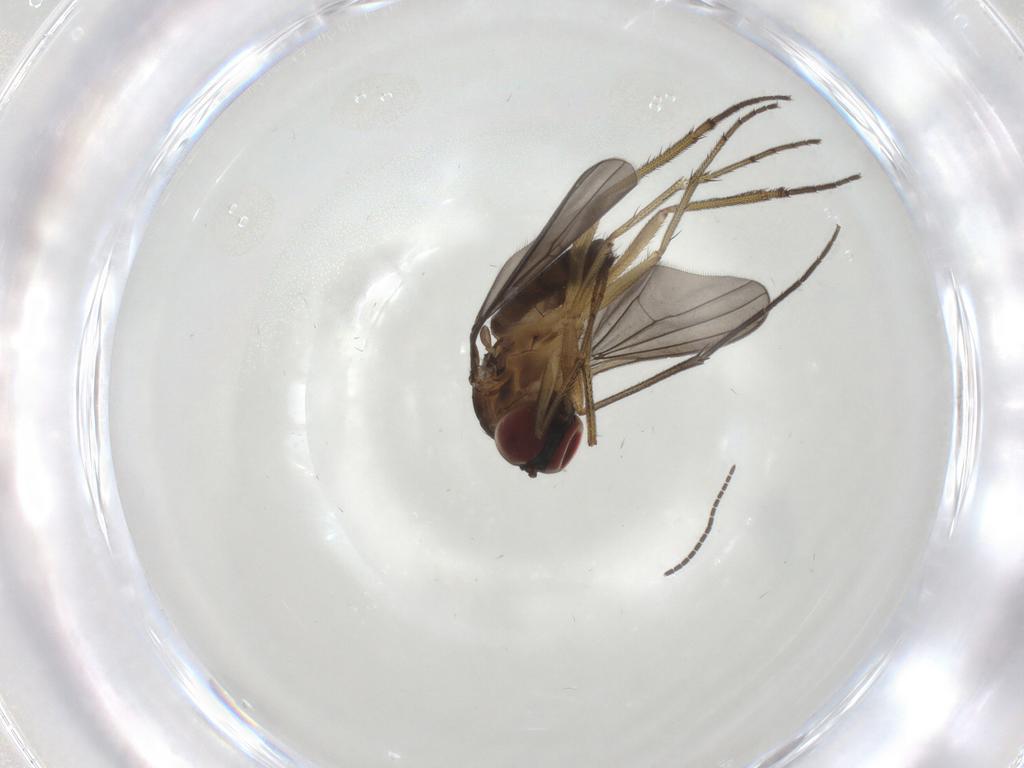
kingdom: Animalia
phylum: Arthropoda
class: Insecta
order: Diptera
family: Dolichopodidae
